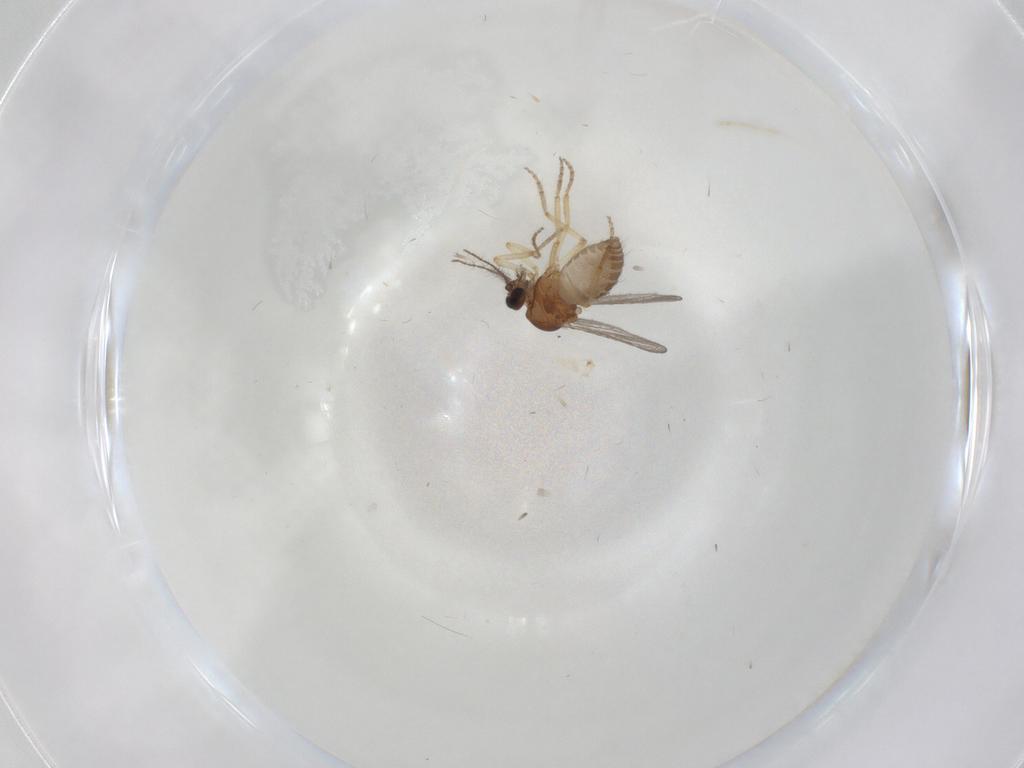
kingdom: Animalia
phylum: Arthropoda
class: Insecta
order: Diptera
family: Ceratopogonidae
